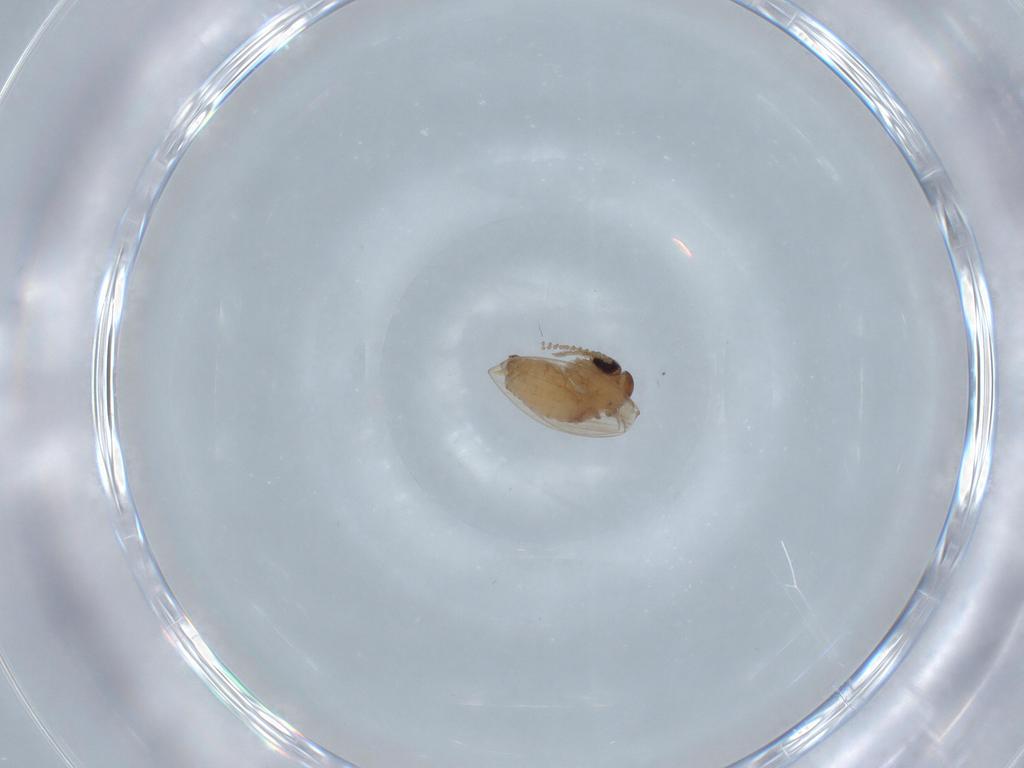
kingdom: Animalia
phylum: Arthropoda
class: Insecta
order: Diptera
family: Psychodidae
